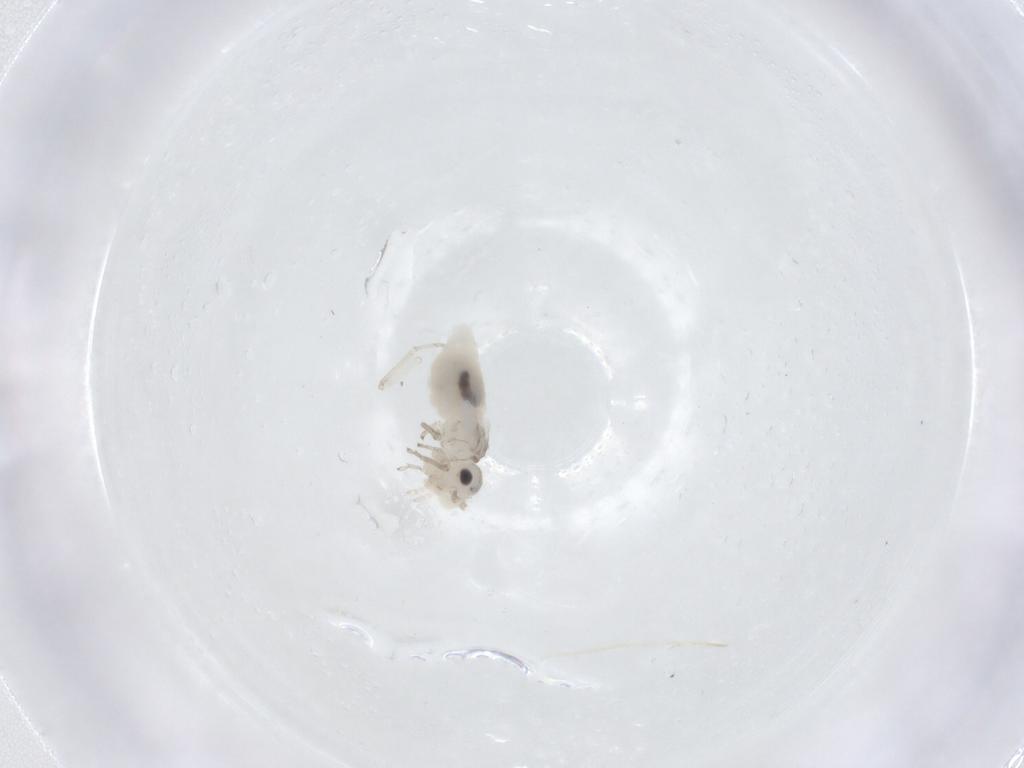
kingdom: Animalia
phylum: Arthropoda
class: Insecta
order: Psocodea
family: Caeciliusidae
